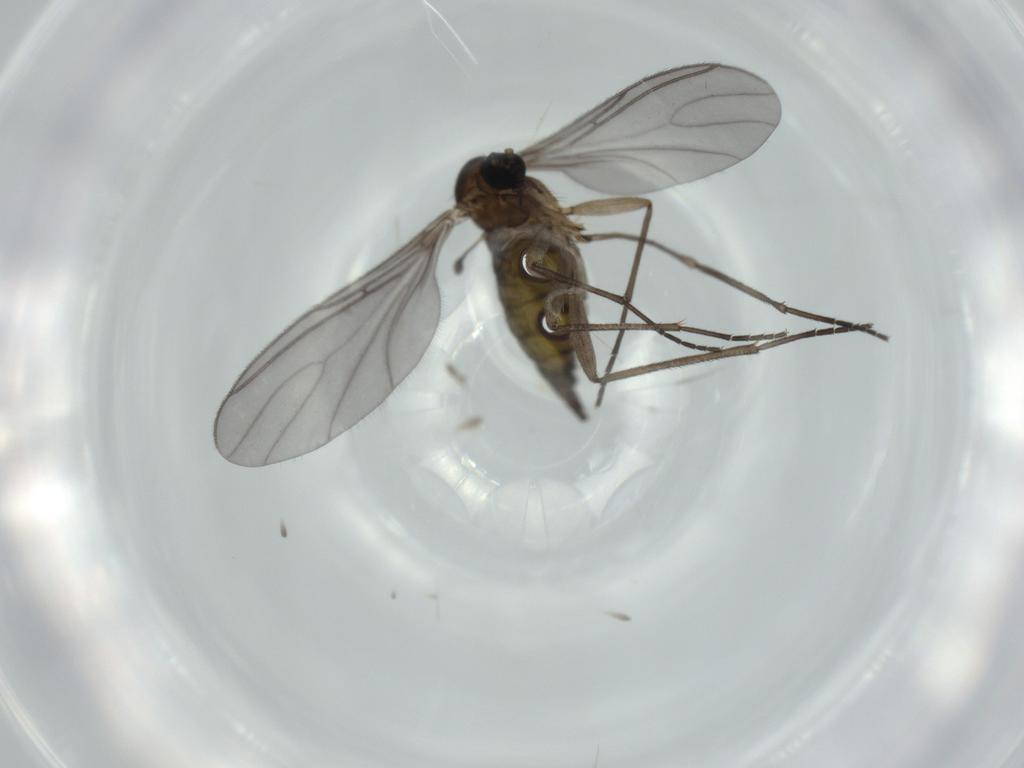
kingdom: Animalia
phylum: Arthropoda
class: Insecta
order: Diptera
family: Sciaridae
